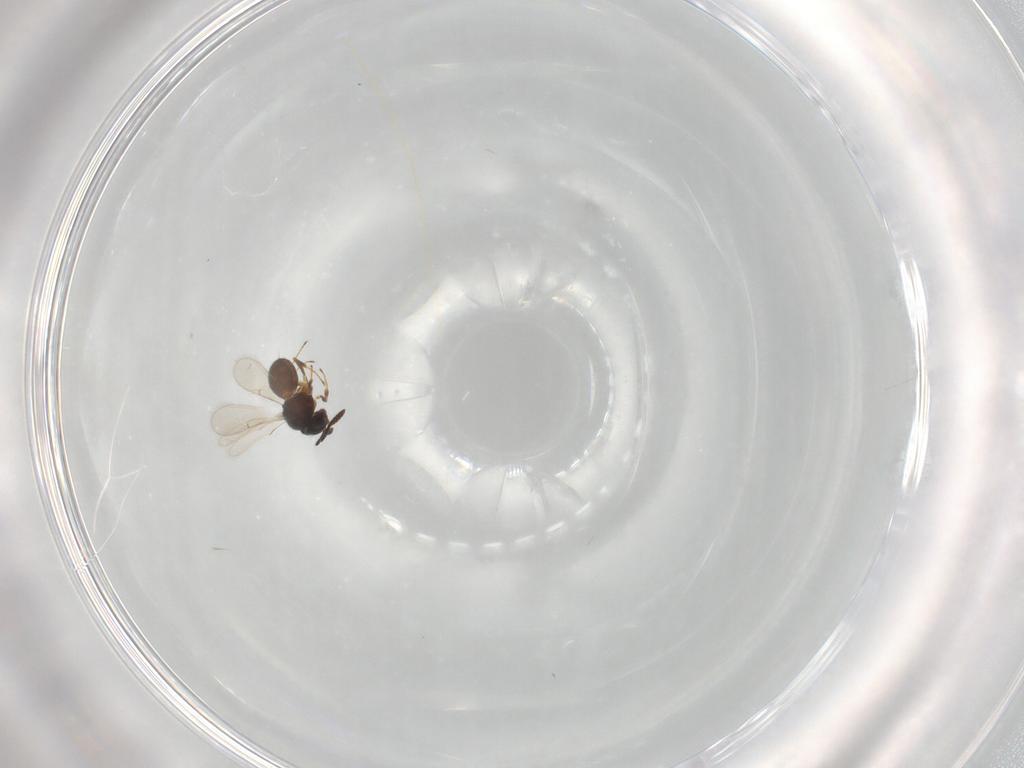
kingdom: Animalia
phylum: Arthropoda
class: Insecta
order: Hymenoptera
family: Scelionidae
